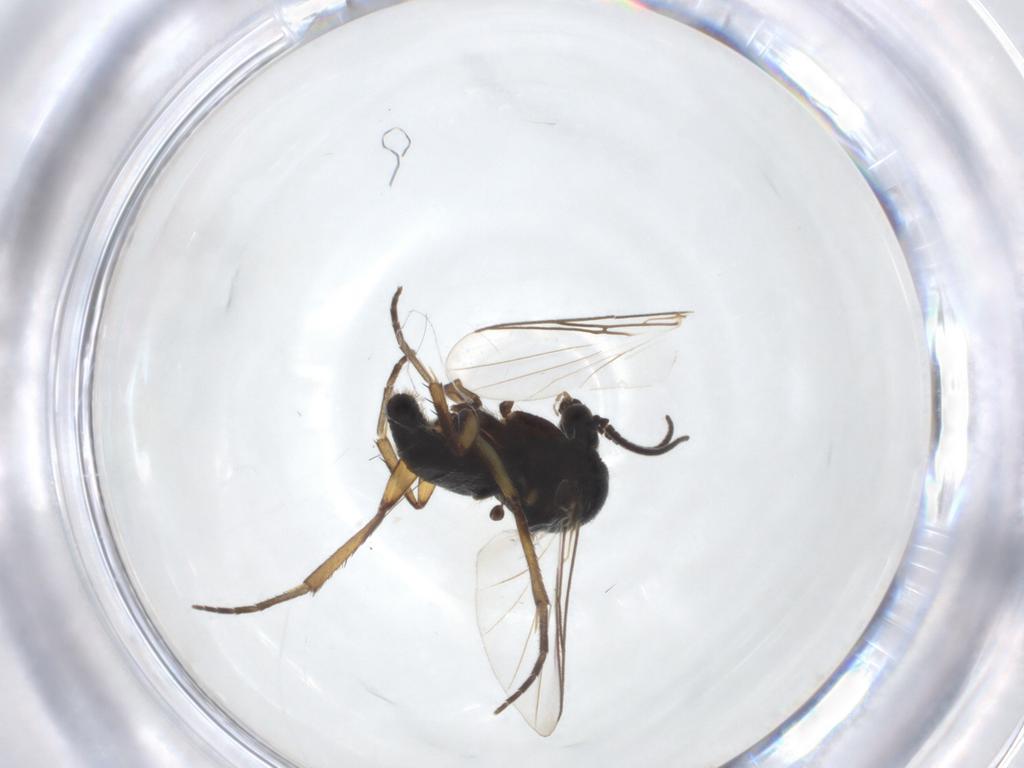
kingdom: Animalia
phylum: Arthropoda
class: Insecta
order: Diptera
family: Mycetophilidae
